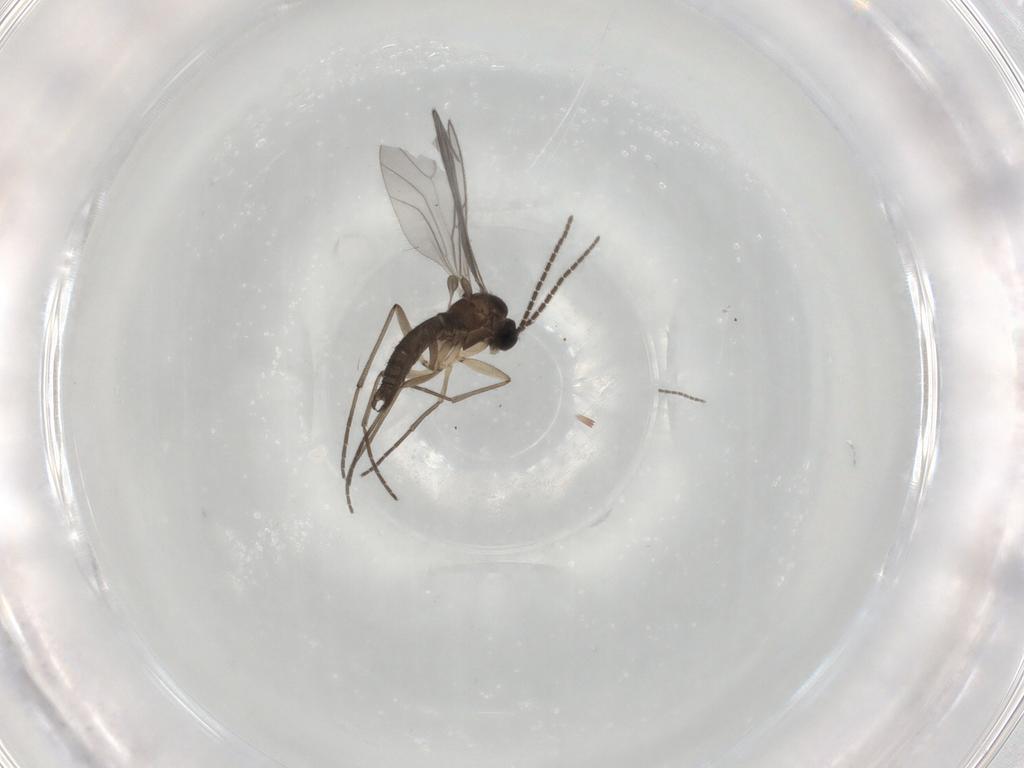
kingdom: Animalia
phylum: Arthropoda
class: Insecta
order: Diptera
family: Sciaridae
